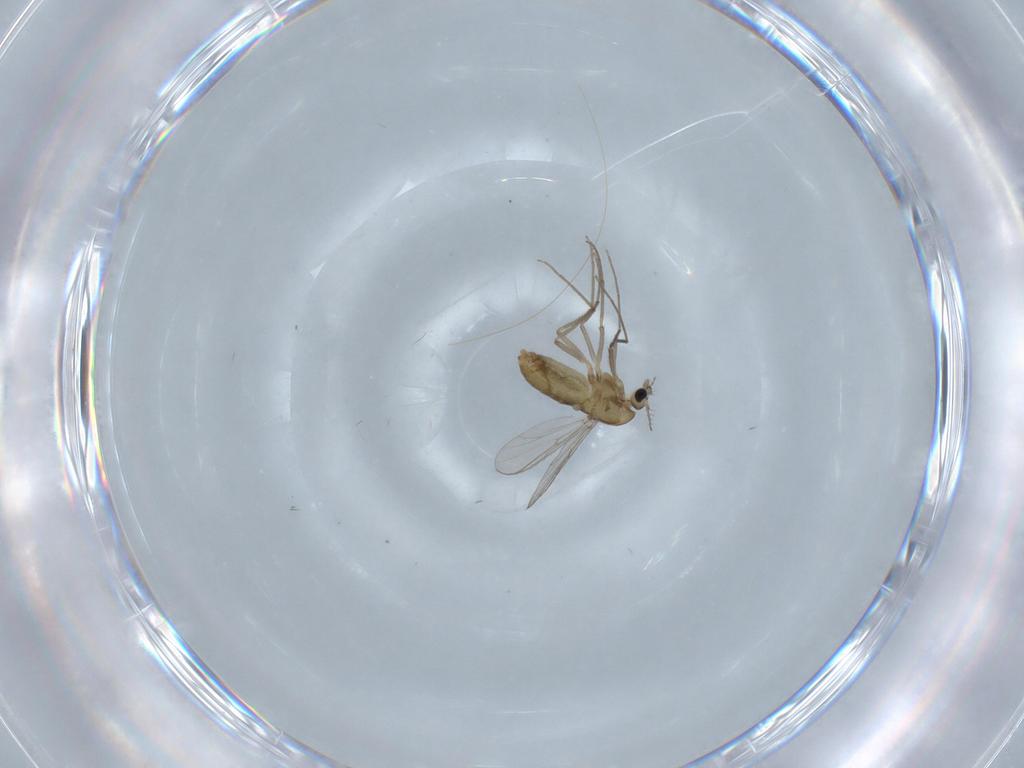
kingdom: Animalia
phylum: Arthropoda
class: Insecta
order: Diptera
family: Chironomidae
